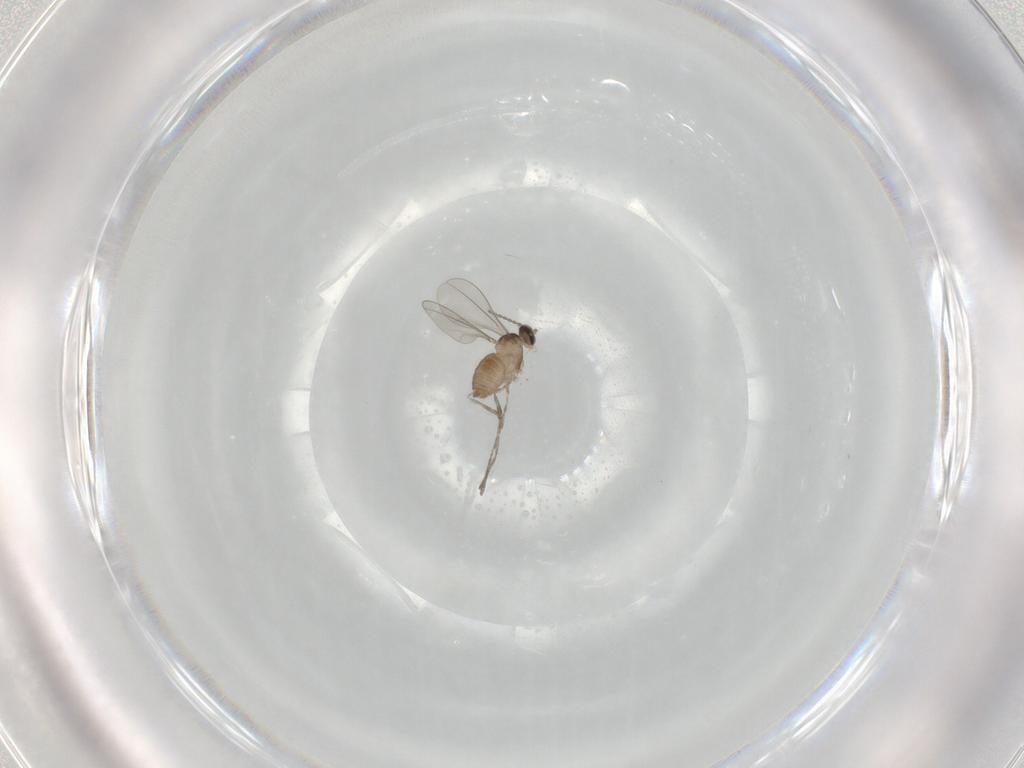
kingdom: Animalia
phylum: Arthropoda
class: Insecta
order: Diptera
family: Cecidomyiidae
